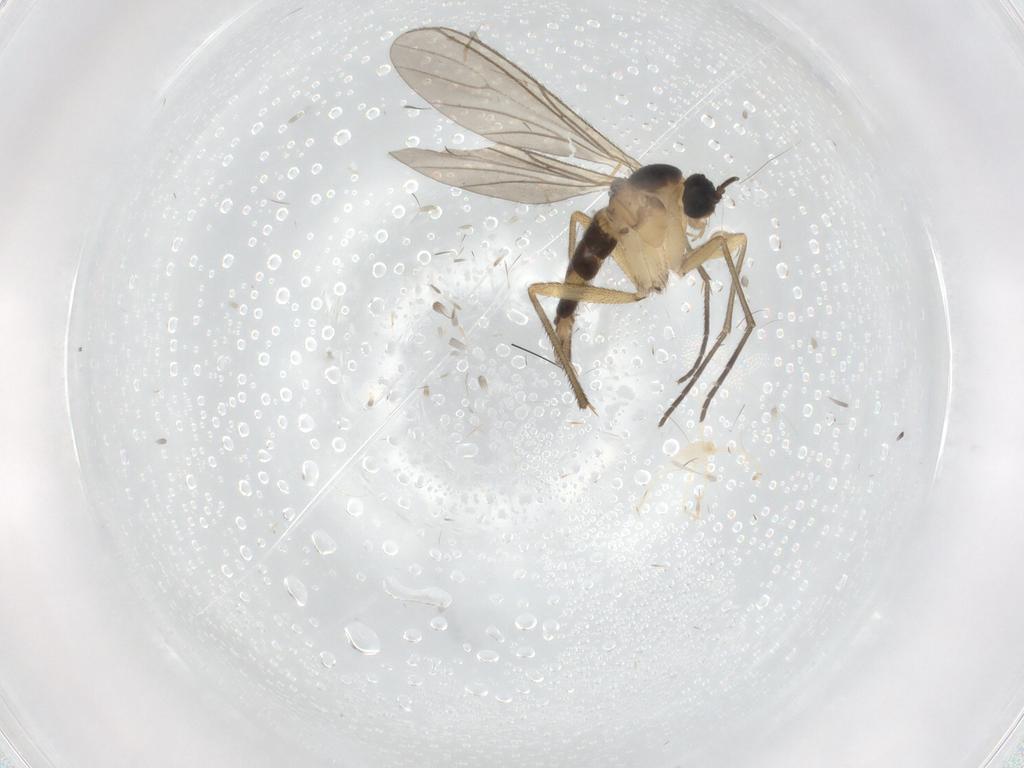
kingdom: Animalia
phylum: Arthropoda
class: Insecta
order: Diptera
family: Sciaridae
